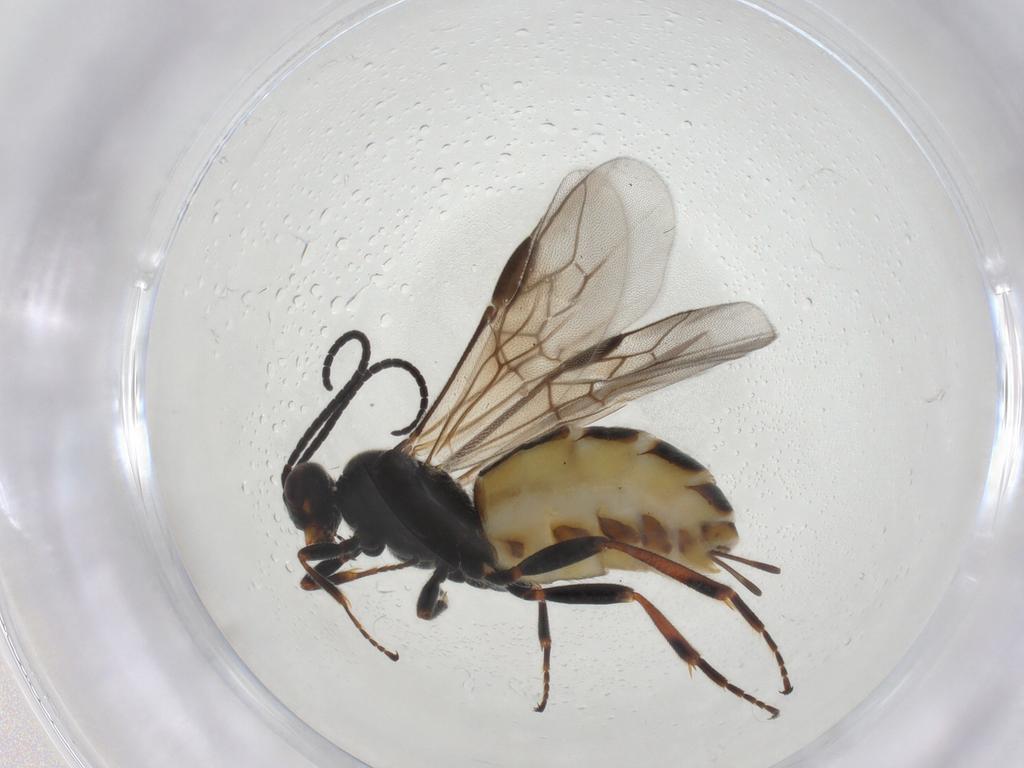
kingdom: Animalia
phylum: Arthropoda
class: Insecta
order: Hymenoptera
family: Braconidae
